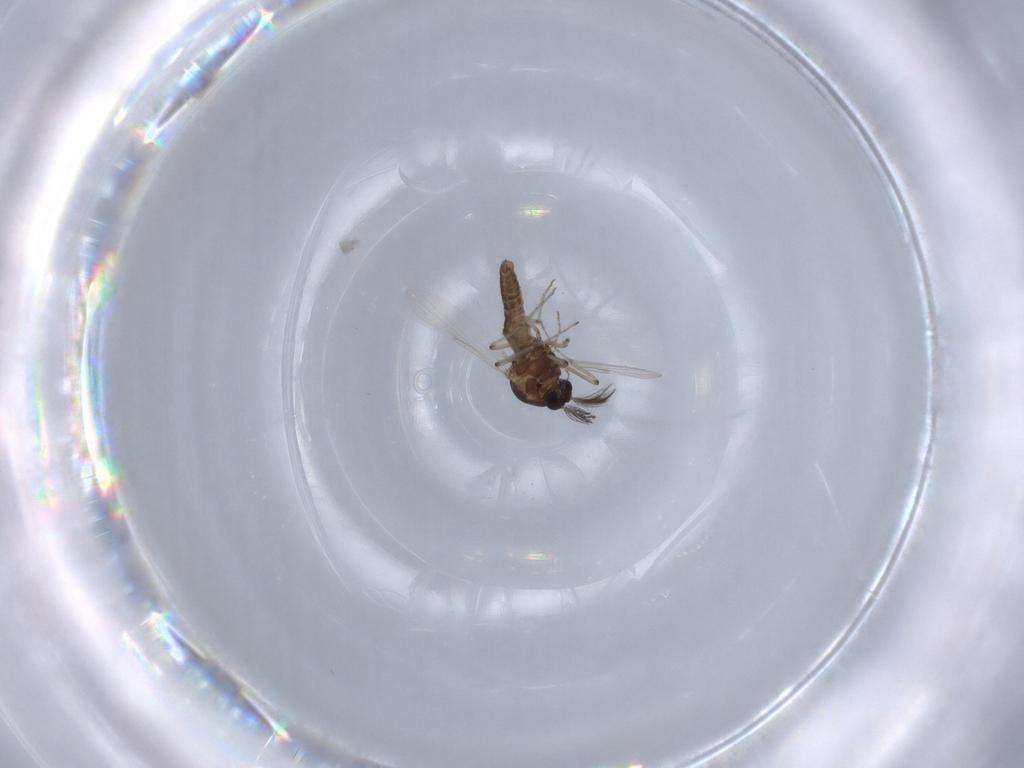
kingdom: Animalia
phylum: Arthropoda
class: Insecta
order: Diptera
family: Ceratopogonidae
